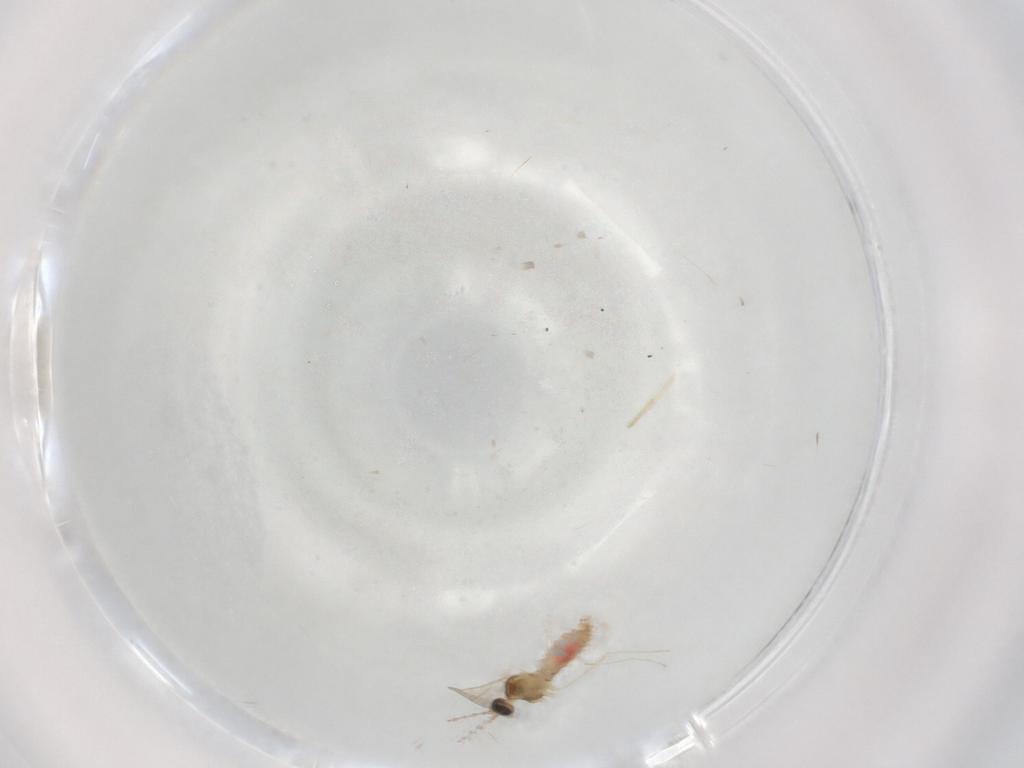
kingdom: Animalia
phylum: Arthropoda
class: Insecta
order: Diptera
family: Cecidomyiidae
